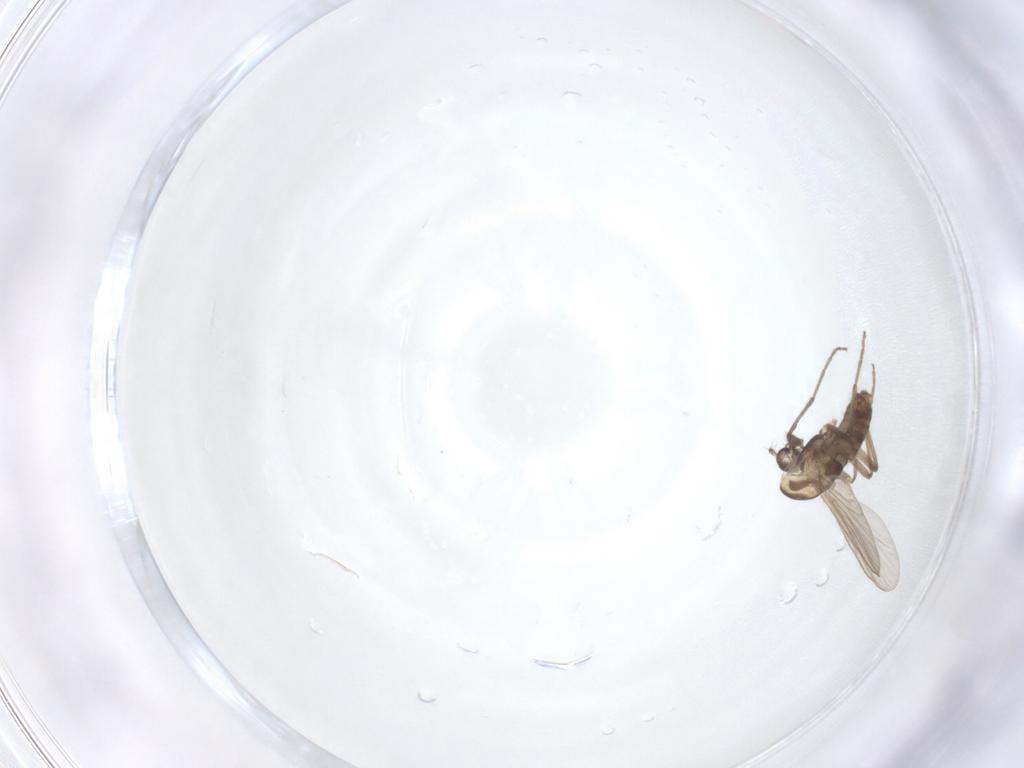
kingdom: Animalia
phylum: Arthropoda
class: Insecta
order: Diptera
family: Chironomidae
